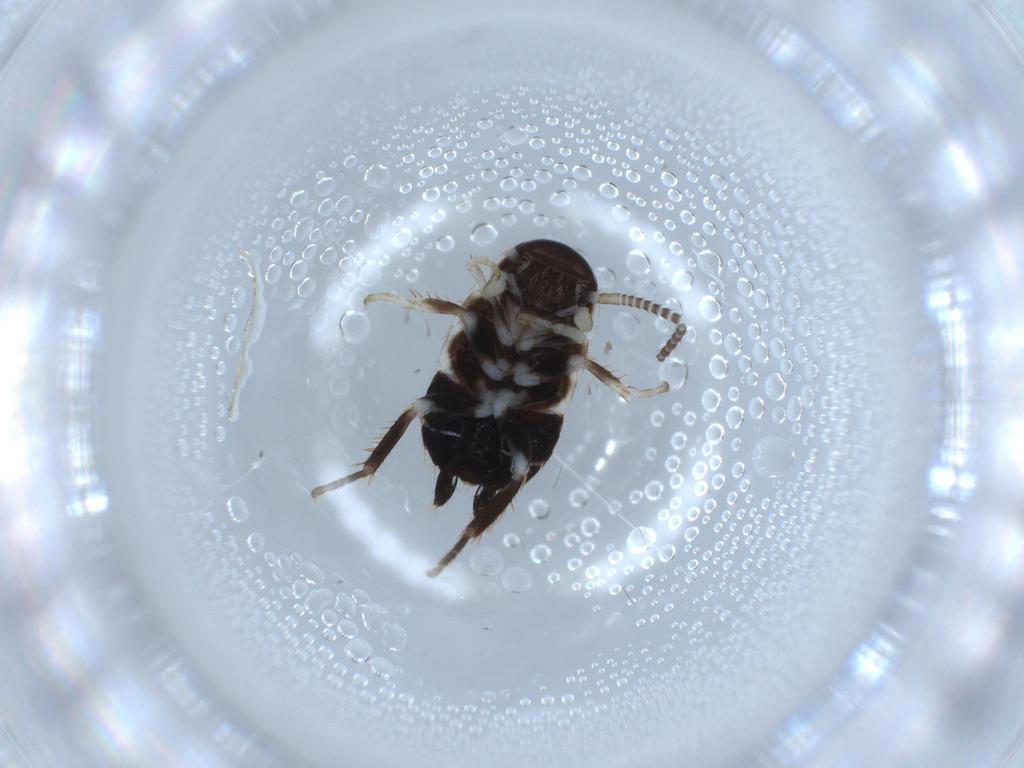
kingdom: Animalia
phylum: Arthropoda
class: Insecta
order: Blattodea
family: Ectobiidae
